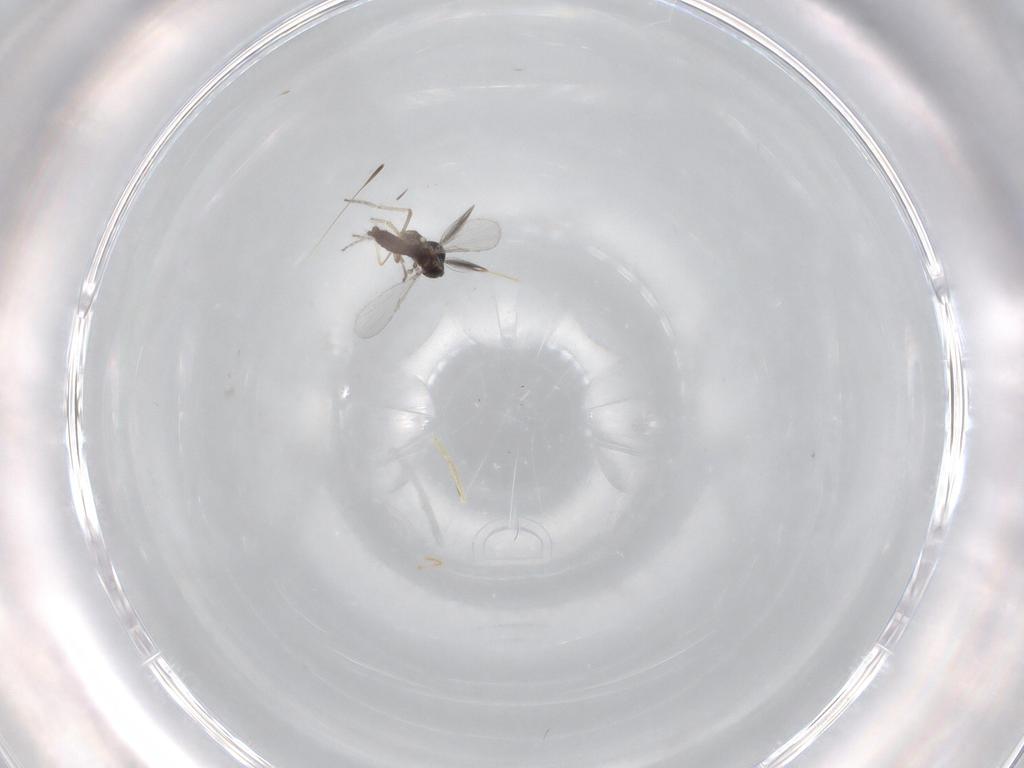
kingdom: Animalia
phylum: Arthropoda
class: Insecta
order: Diptera
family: Ceratopogonidae
